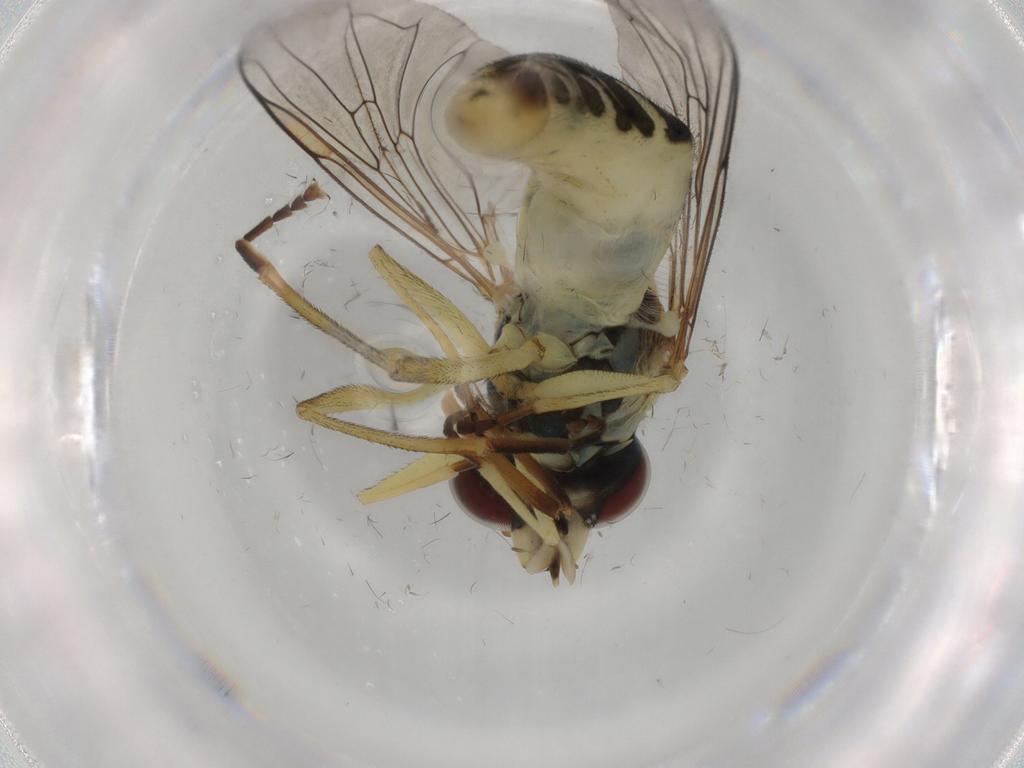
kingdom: Animalia
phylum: Arthropoda
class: Insecta
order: Diptera
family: Syrphidae
